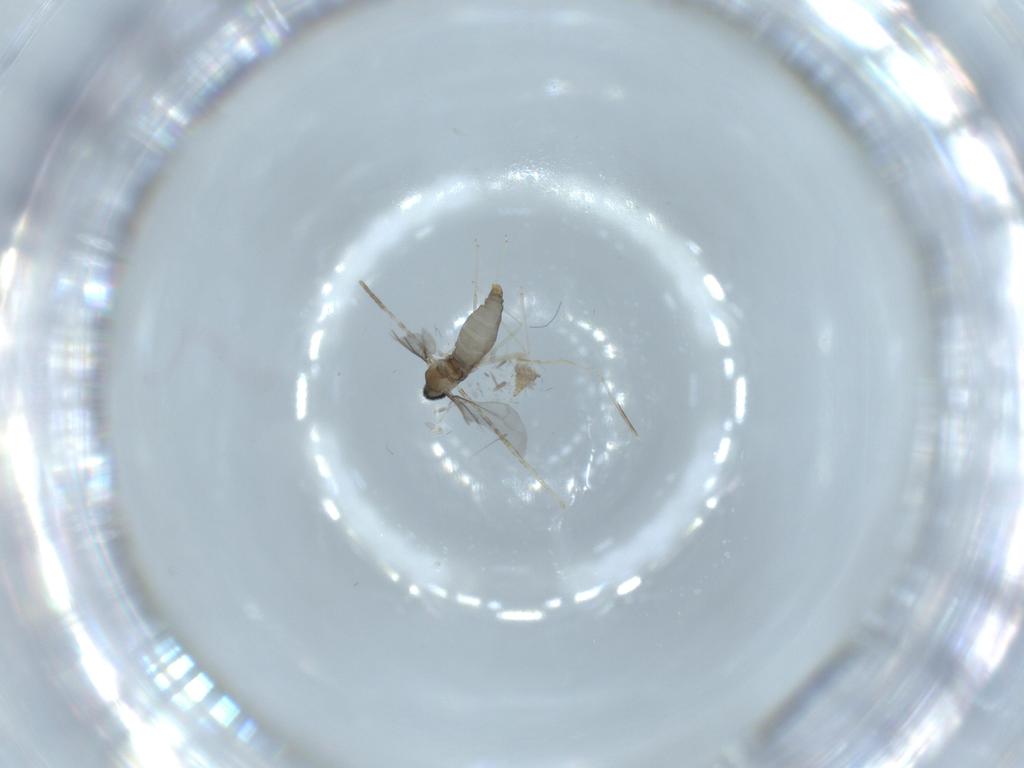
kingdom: Animalia
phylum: Arthropoda
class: Insecta
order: Diptera
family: Cecidomyiidae
